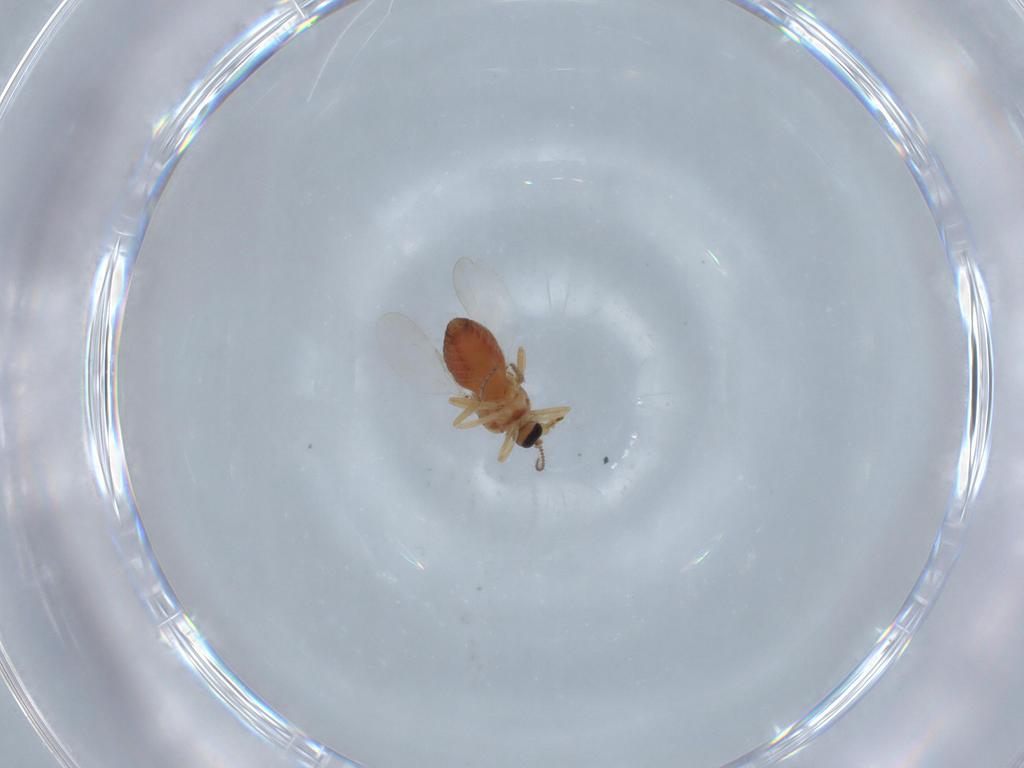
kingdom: Animalia
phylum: Arthropoda
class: Insecta
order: Diptera
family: Ceratopogonidae
